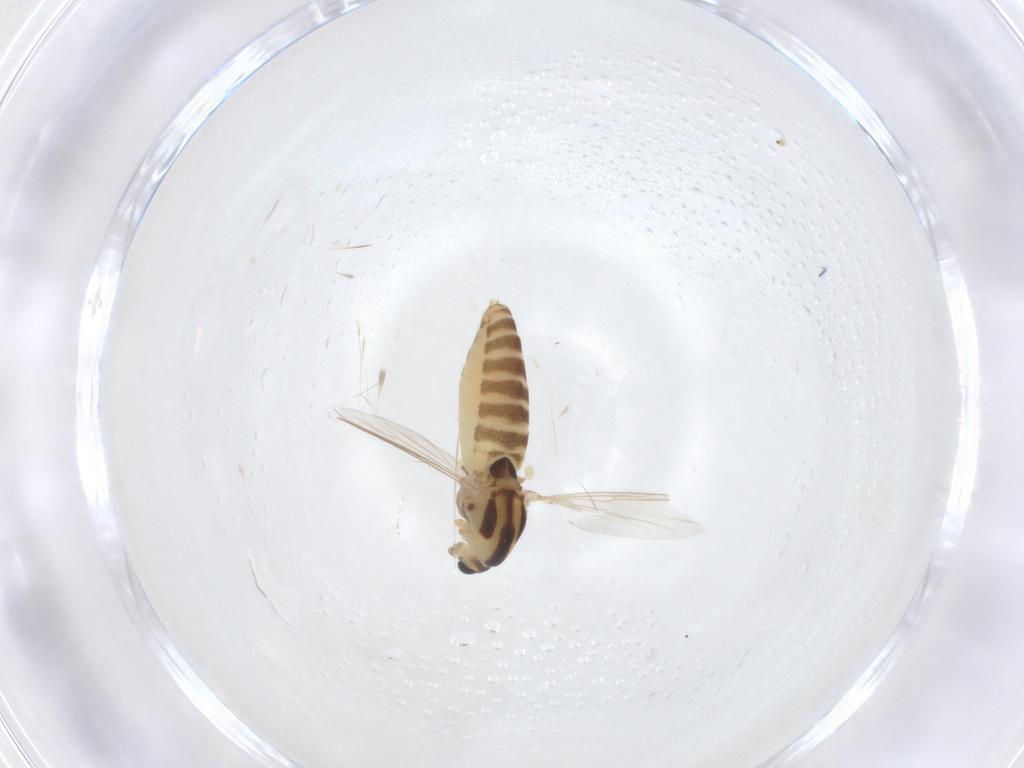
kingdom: Animalia
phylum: Arthropoda
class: Insecta
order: Diptera
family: Chironomidae
